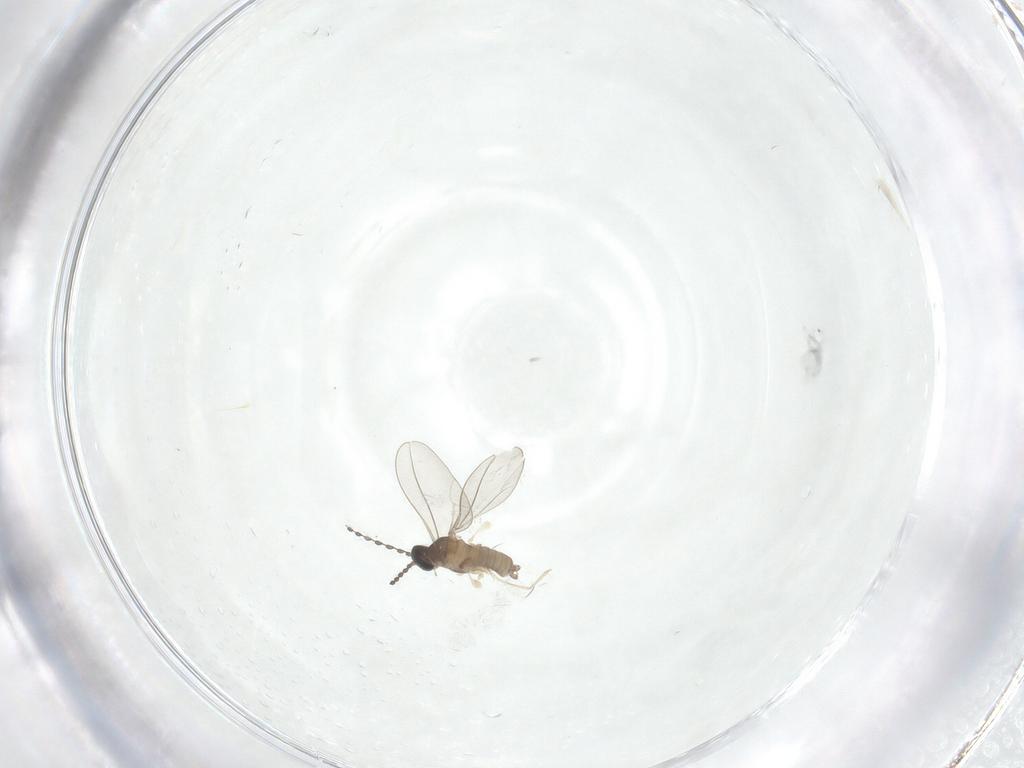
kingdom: Animalia
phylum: Arthropoda
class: Insecta
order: Diptera
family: Cecidomyiidae
